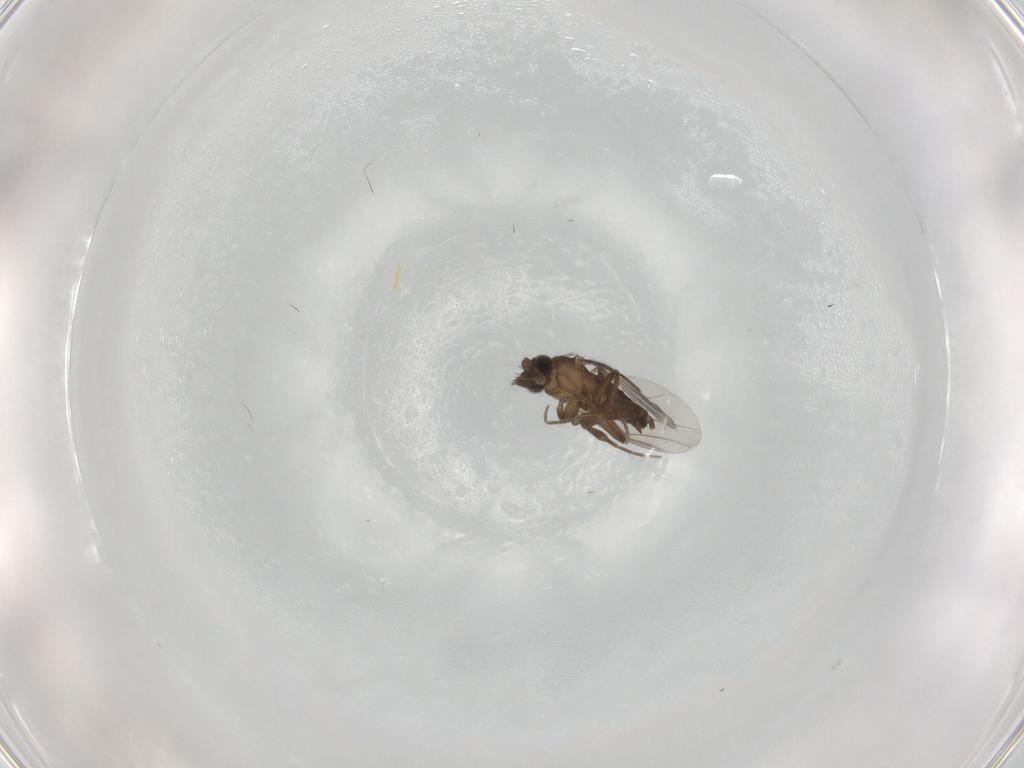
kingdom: Animalia
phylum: Arthropoda
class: Insecta
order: Diptera
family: Phoridae
